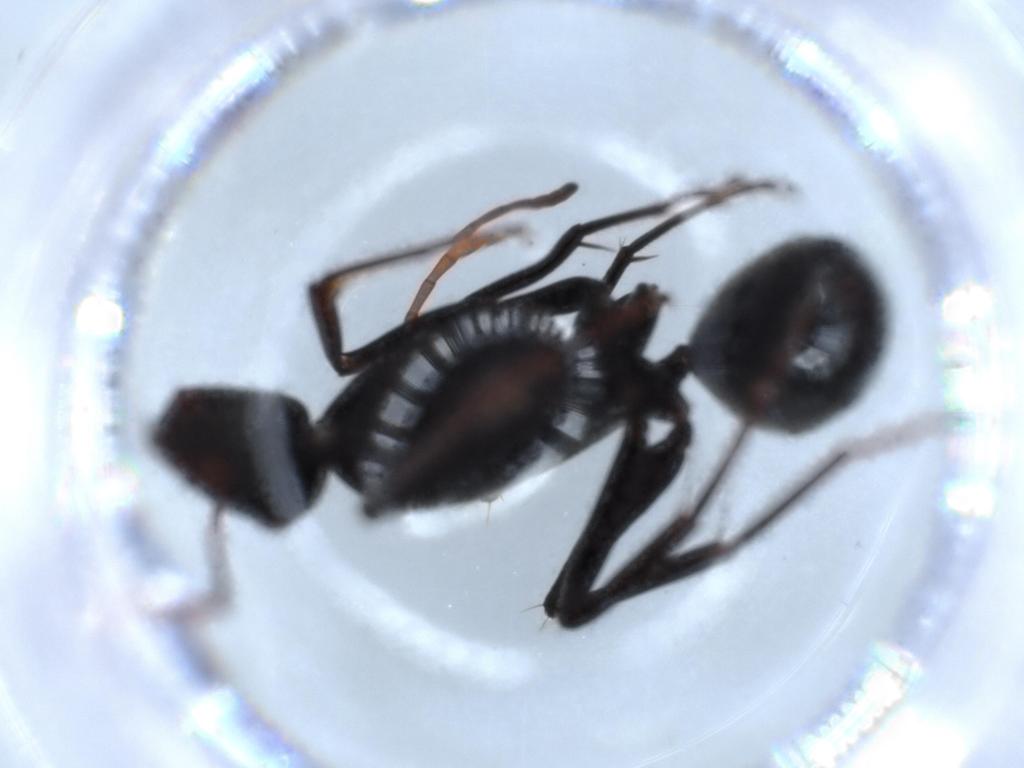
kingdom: Animalia
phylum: Arthropoda
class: Insecta
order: Hymenoptera
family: Formicidae
